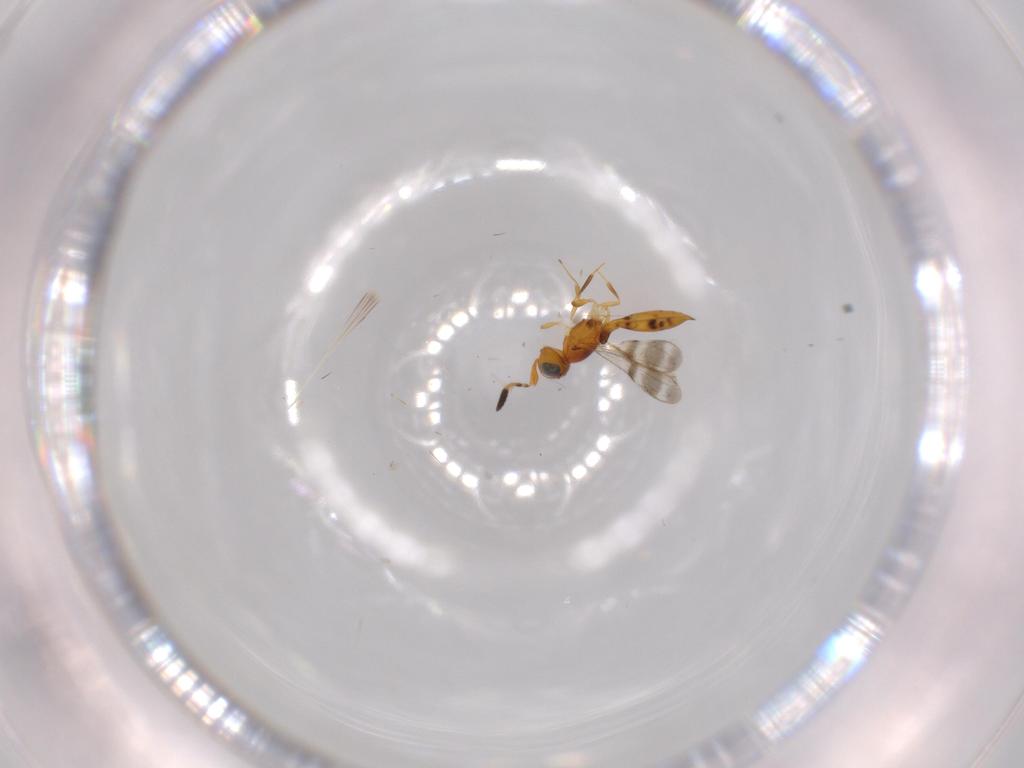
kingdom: Animalia
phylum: Arthropoda
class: Insecta
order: Hymenoptera
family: Scelionidae
